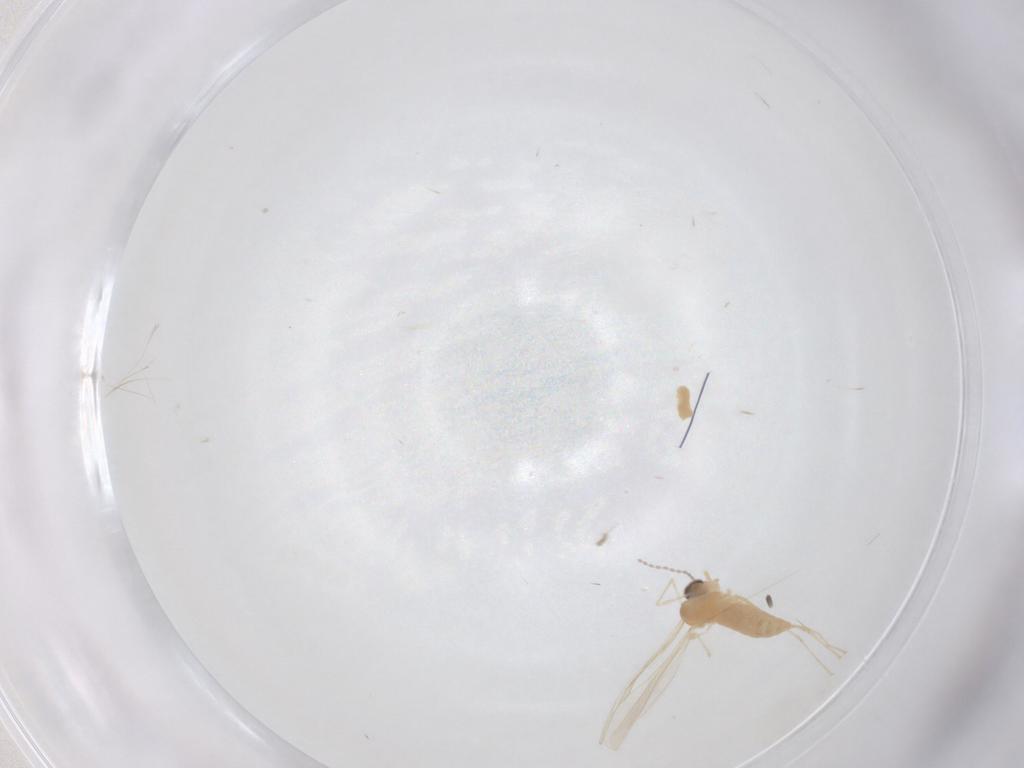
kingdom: Animalia
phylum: Arthropoda
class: Insecta
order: Diptera
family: Cecidomyiidae
